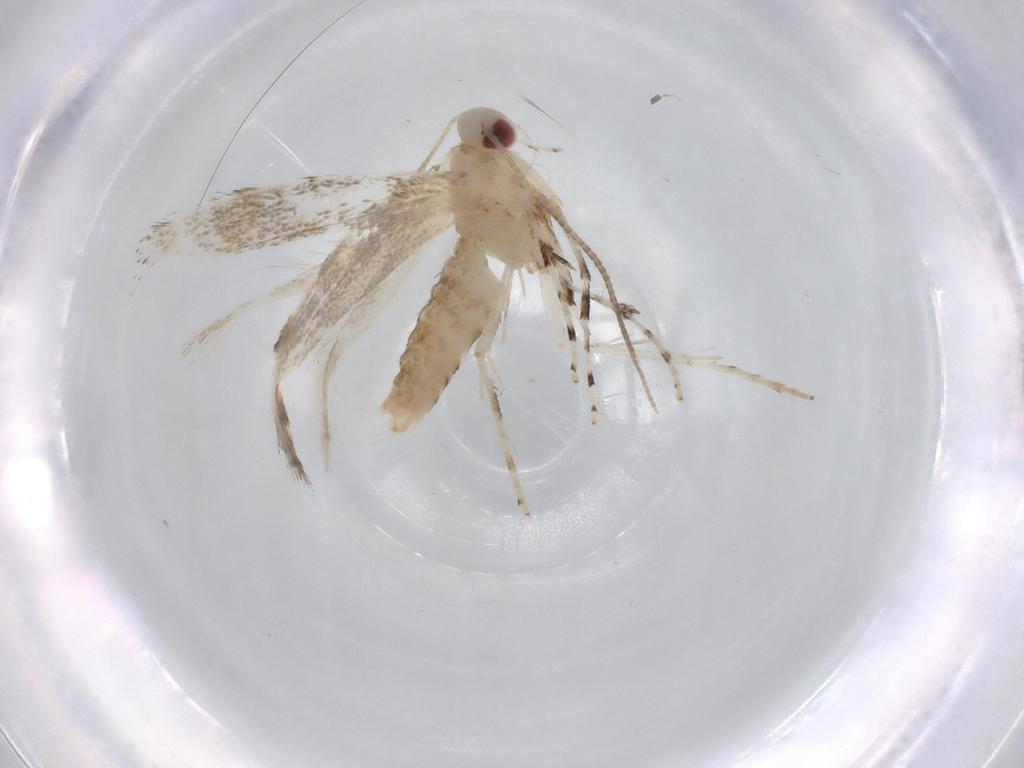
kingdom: Animalia
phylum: Arthropoda
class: Insecta
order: Lepidoptera
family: Gracillariidae
